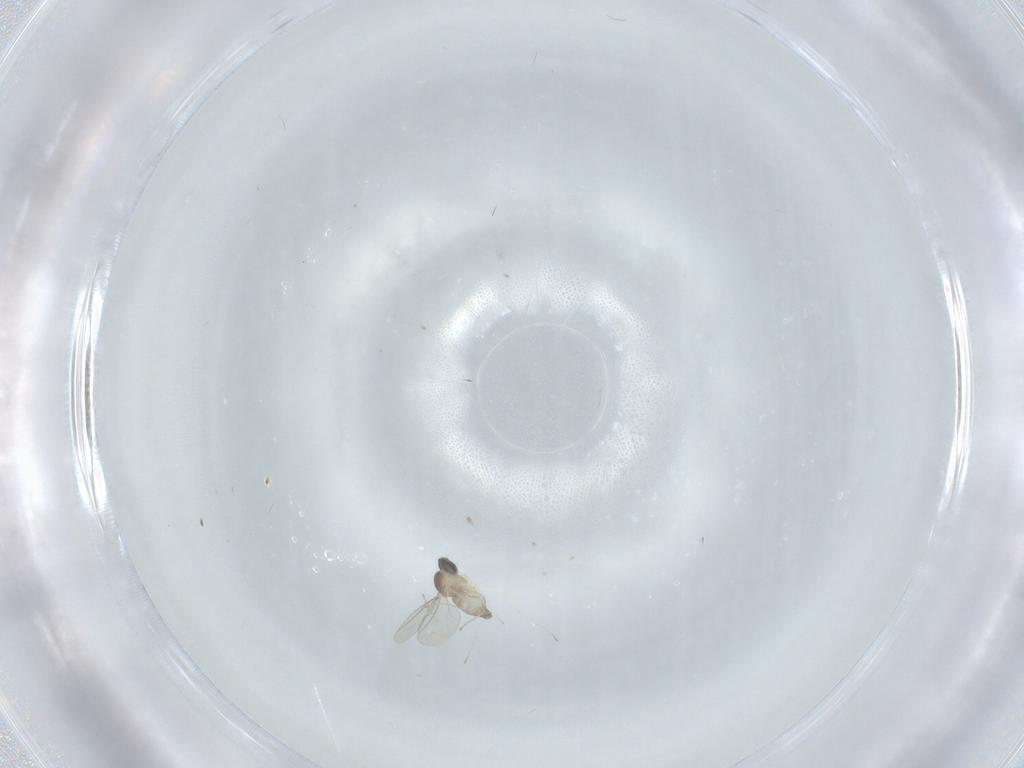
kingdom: Animalia
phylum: Arthropoda
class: Insecta
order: Diptera
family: Cecidomyiidae
